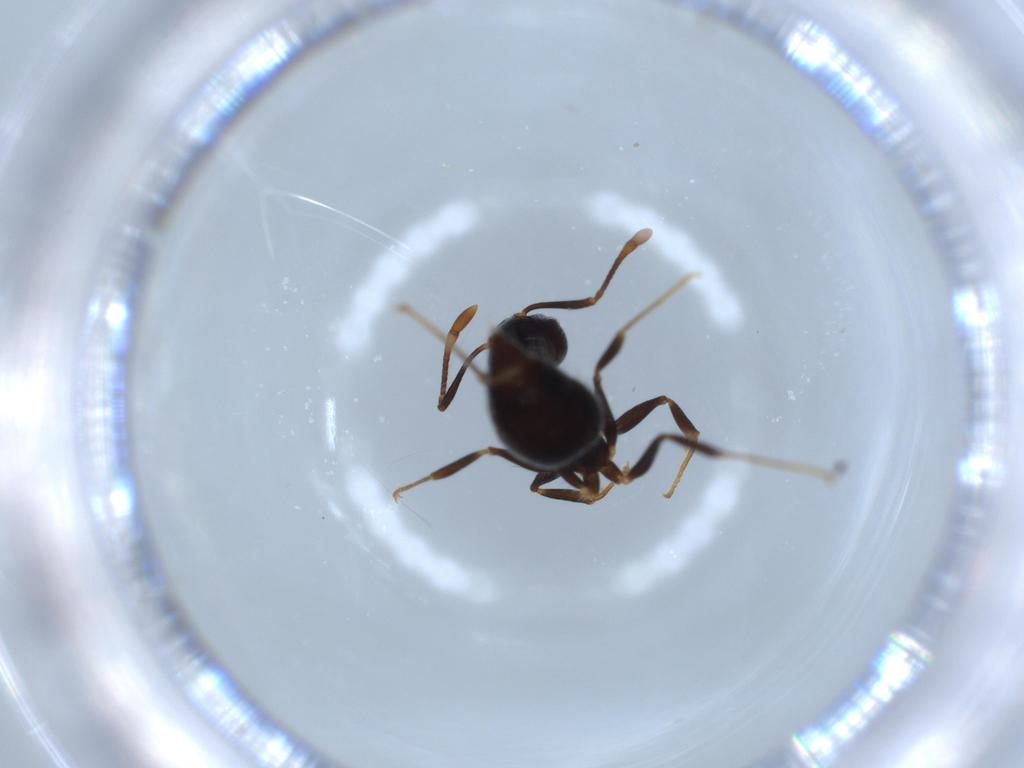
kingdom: Animalia
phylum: Arthropoda
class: Insecta
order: Hymenoptera
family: Formicidae
